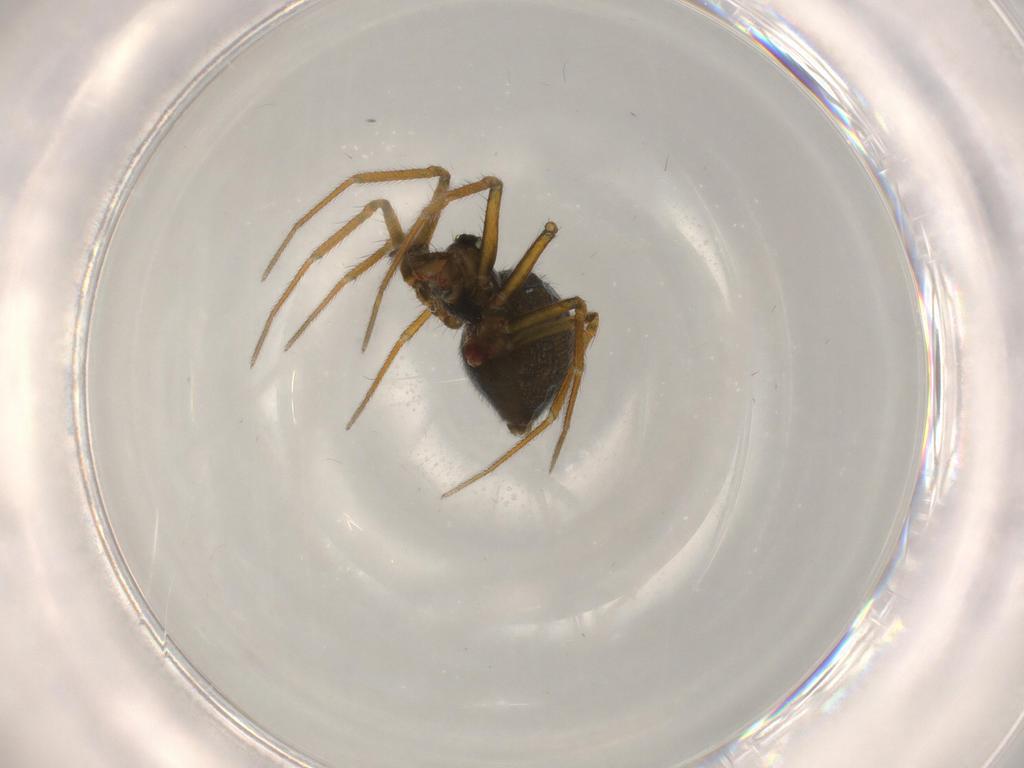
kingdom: Animalia
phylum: Arthropoda
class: Arachnida
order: Araneae
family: Linyphiidae
